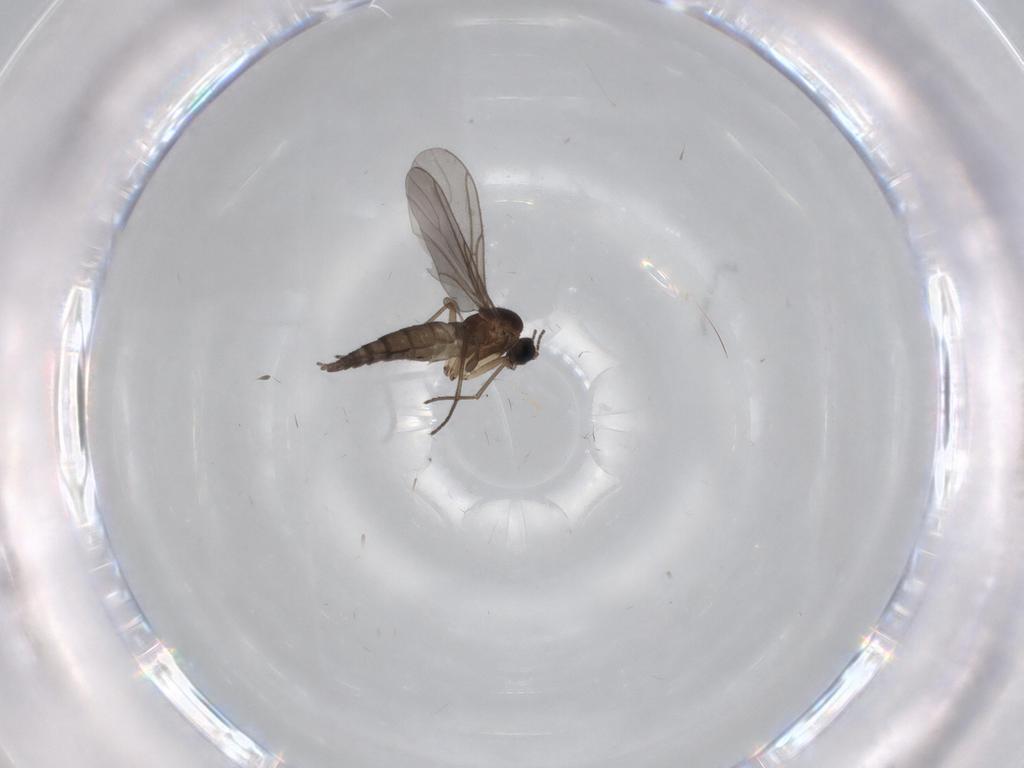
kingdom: Animalia
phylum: Arthropoda
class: Insecta
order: Diptera
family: Sciaridae
